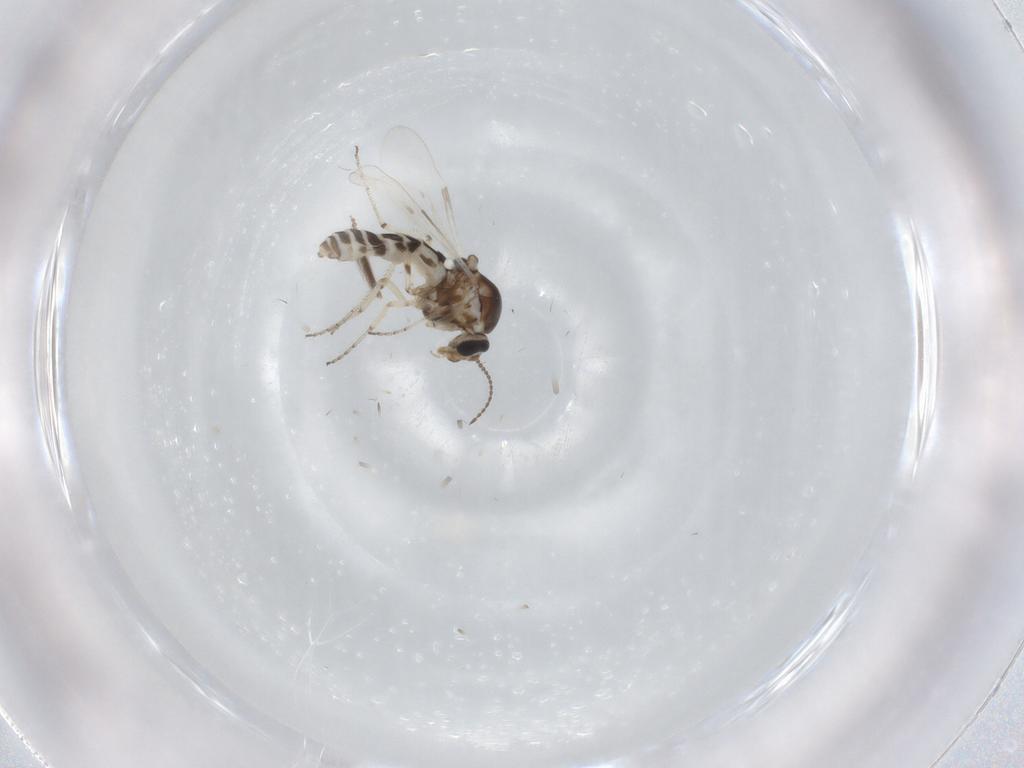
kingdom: Animalia
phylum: Arthropoda
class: Insecta
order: Diptera
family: Ceratopogonidae
